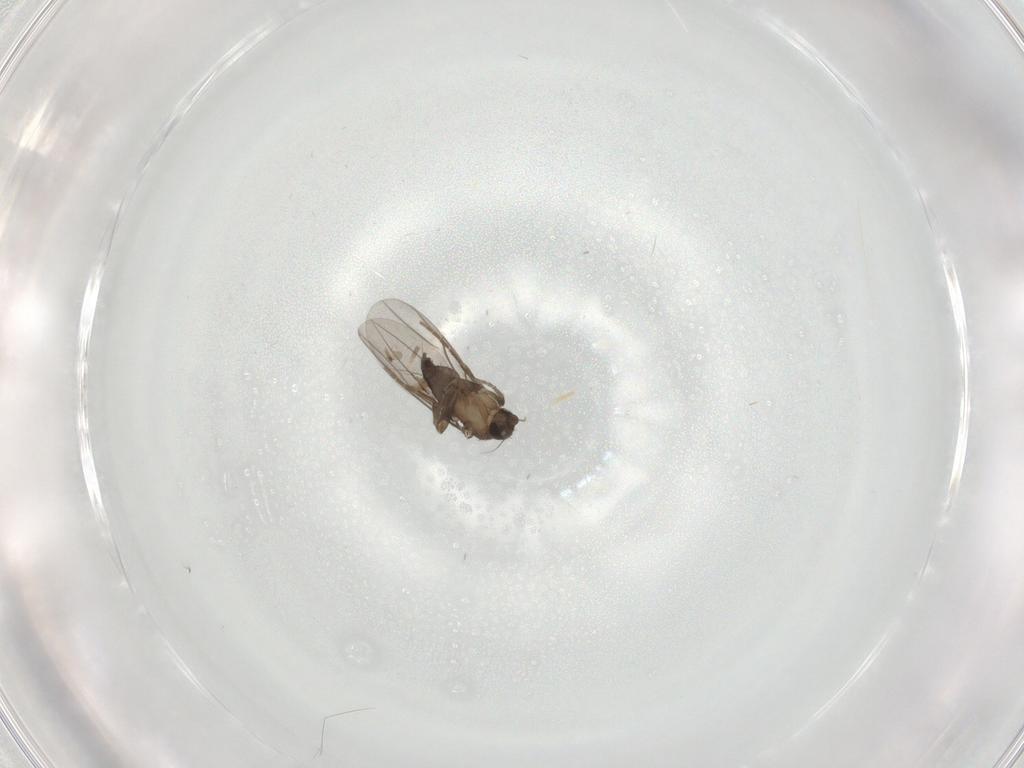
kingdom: Animalia
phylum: Arthropoda
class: Insecta
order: Diptera
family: Phoridae
